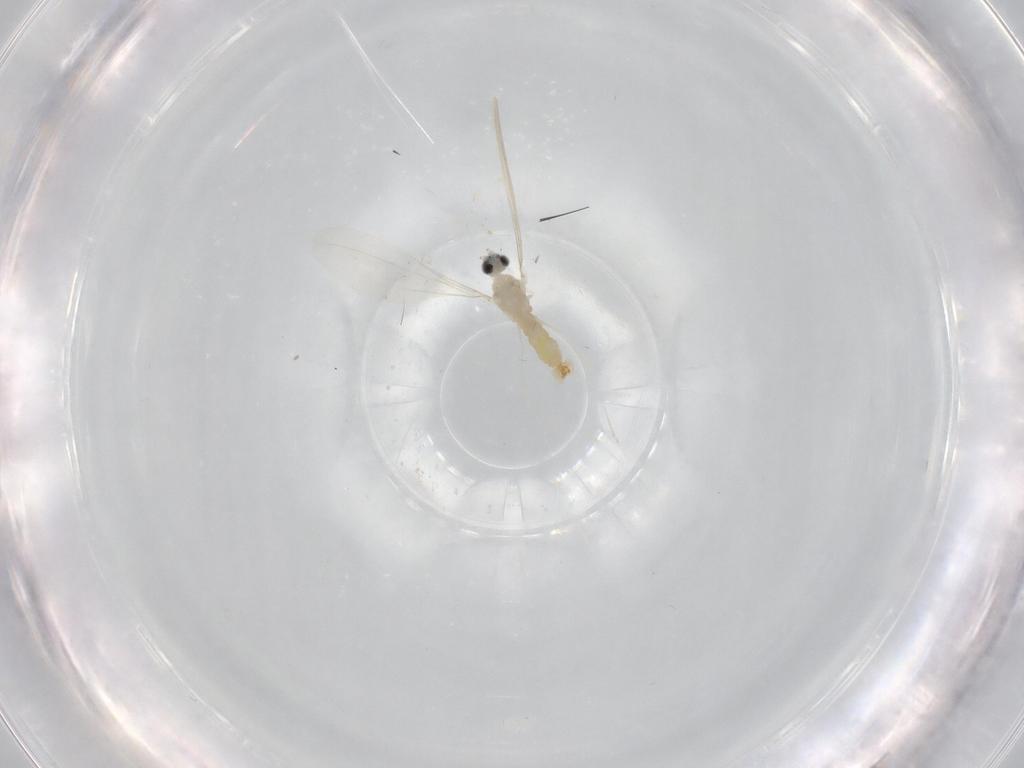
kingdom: Animalia
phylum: Arthropoda
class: Insecta
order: Diptera
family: Cecidomyiidae
